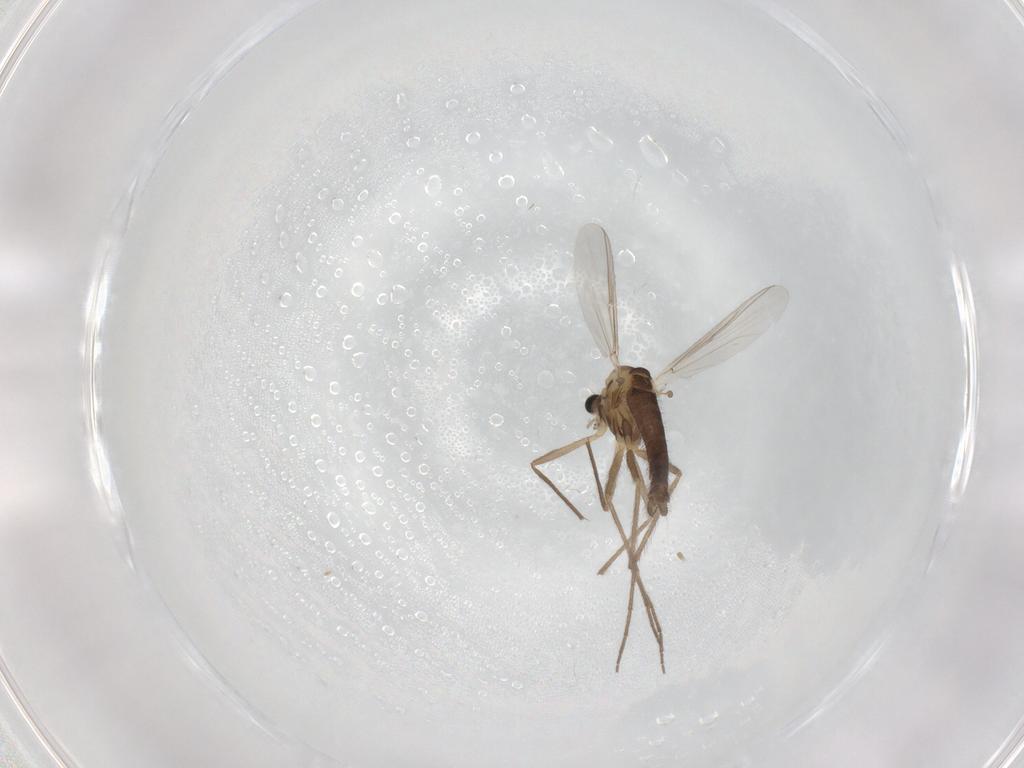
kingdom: Animalia
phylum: Arthropoda
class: Insecta
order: Diptera
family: Chironomidae
